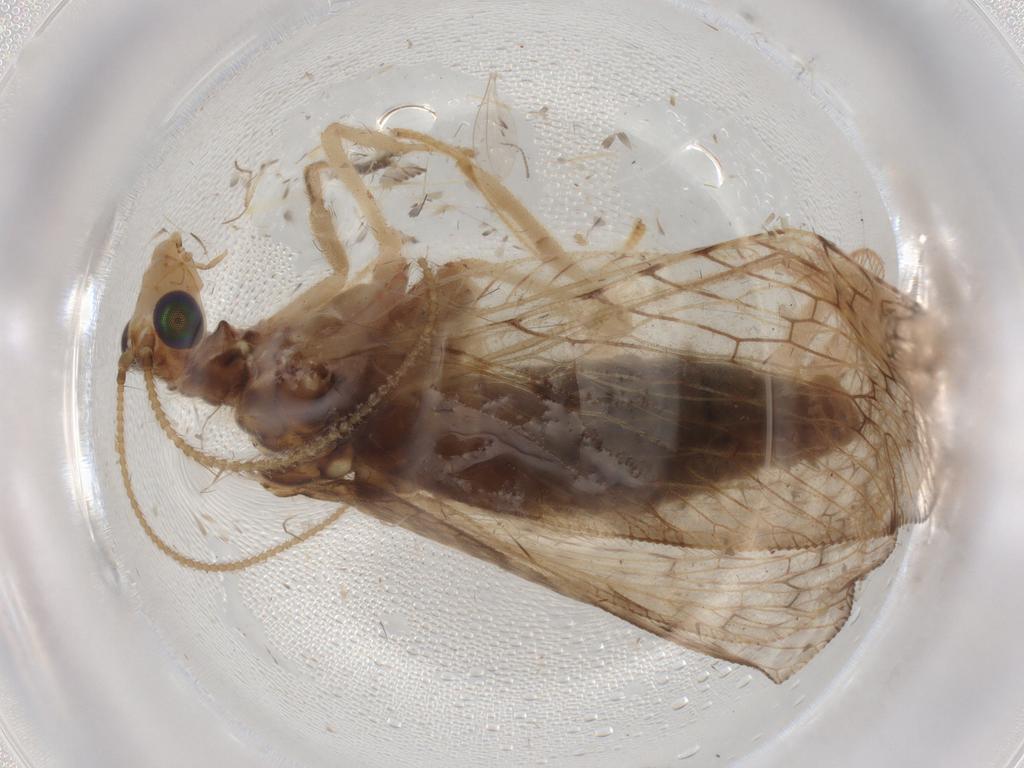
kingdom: Animalia
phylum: Arthropoda
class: Insecta
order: Neuroptera
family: Hemerobiidae
